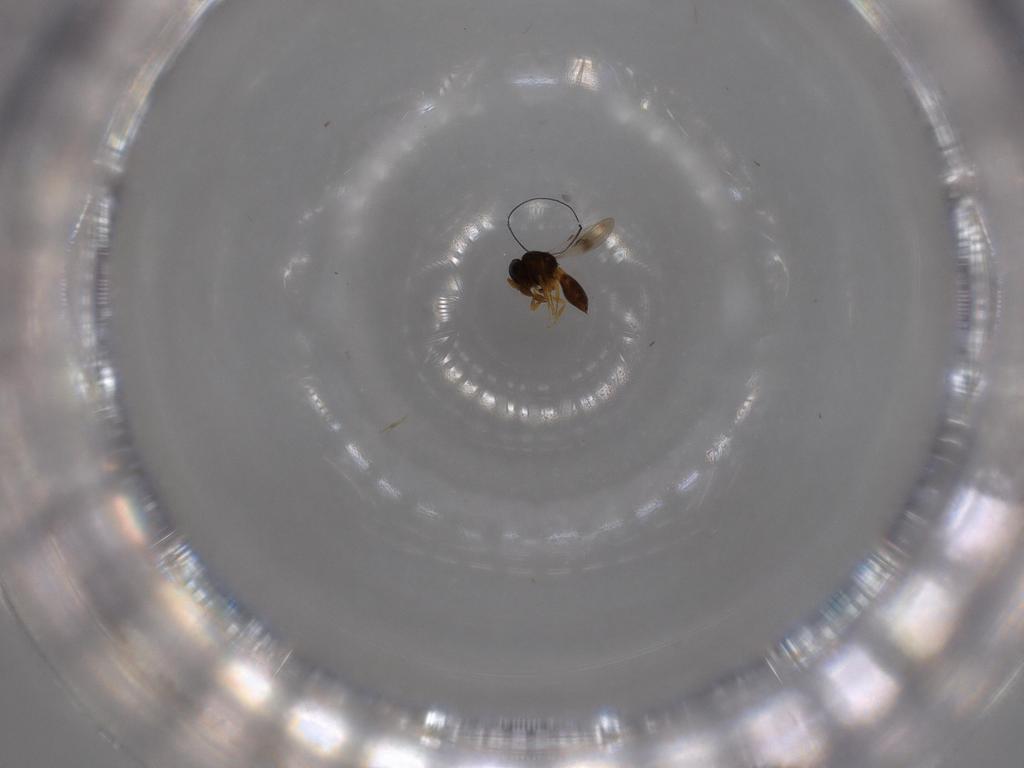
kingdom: Animalia
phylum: Arthropoda
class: Insecta
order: Hymenoptera
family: Scelionidae
